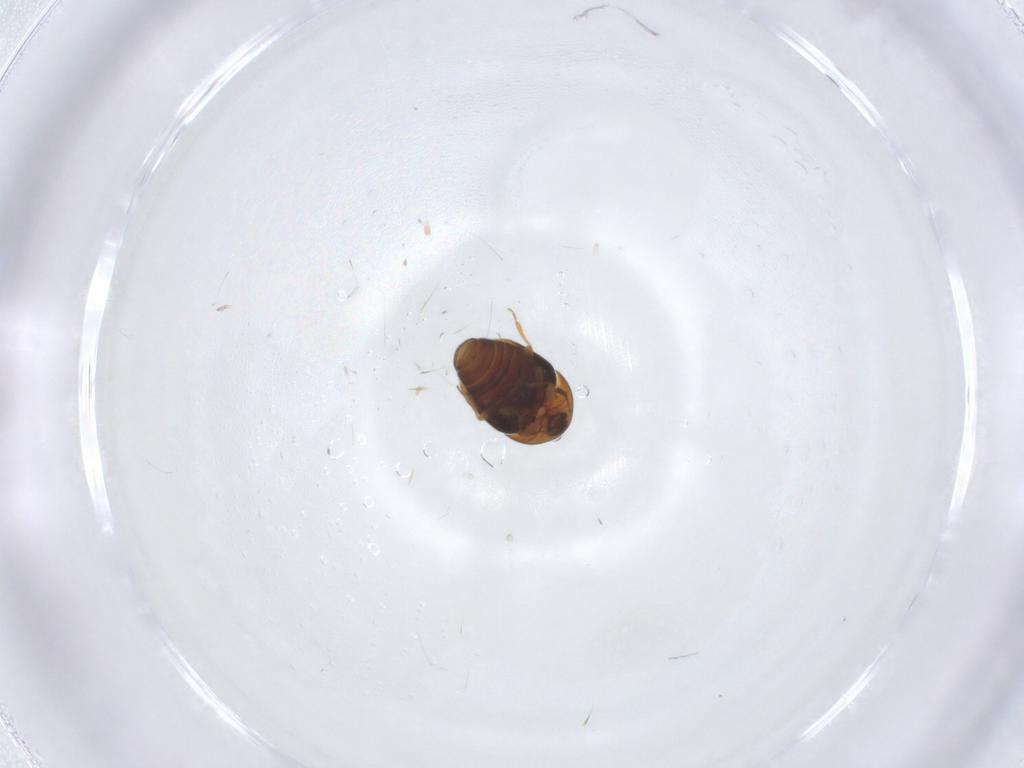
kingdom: Animalia
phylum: Arthropoda
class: Insecta
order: Coleoptera
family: Corylophidae
